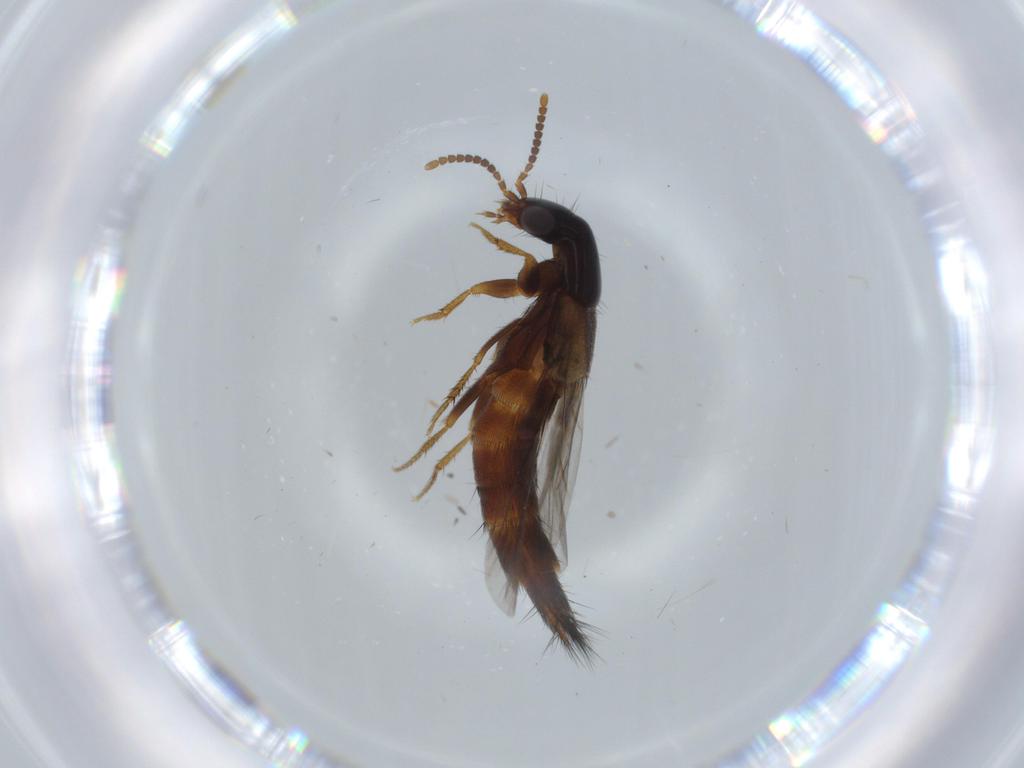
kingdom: Animalia
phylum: Arthropoda
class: Insecta
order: Coleoptera
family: Staphylinidae
